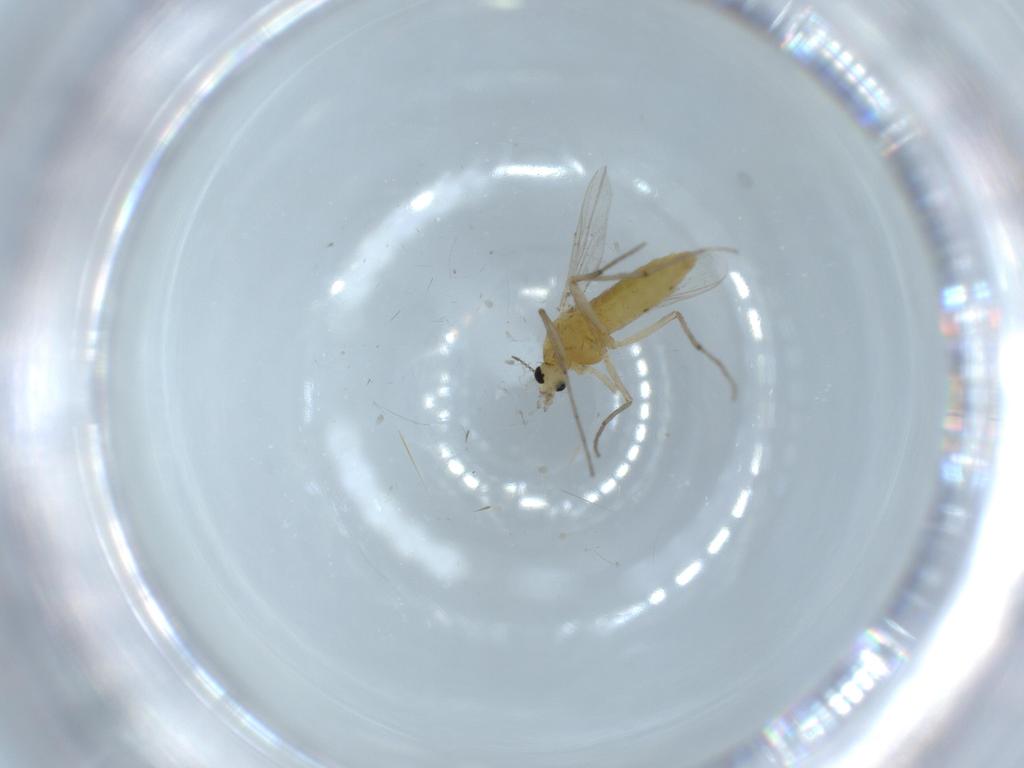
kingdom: Animalia
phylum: Arthropoda
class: Insecta
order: Diptera
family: Chironomidae
